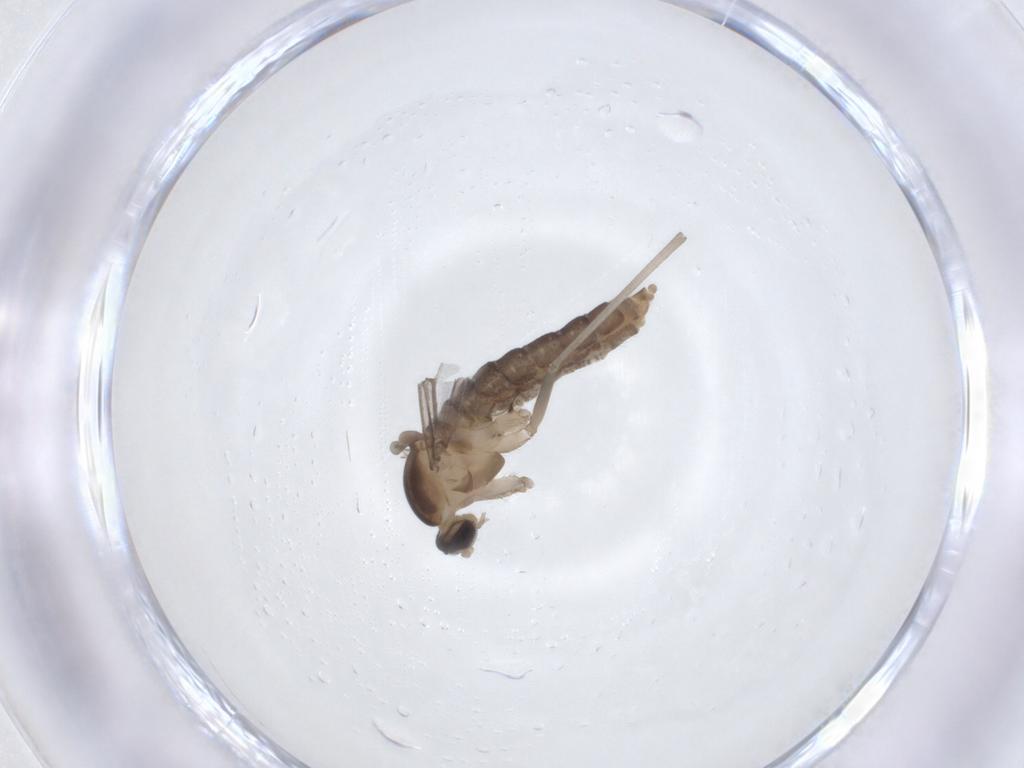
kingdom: Animalia
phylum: Arthropoda
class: Insecta
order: Diptera
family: Cecidomyiidae
